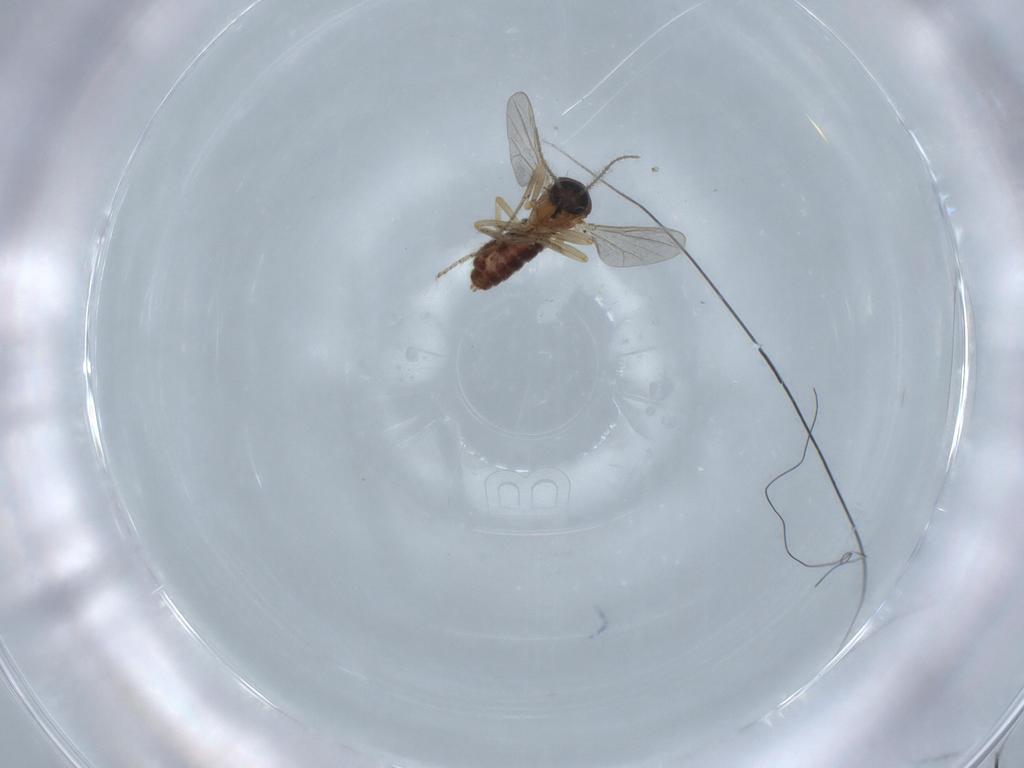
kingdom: Animalia
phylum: Arthropoda
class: Insecta
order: Diptera
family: Ceratopogonidae
